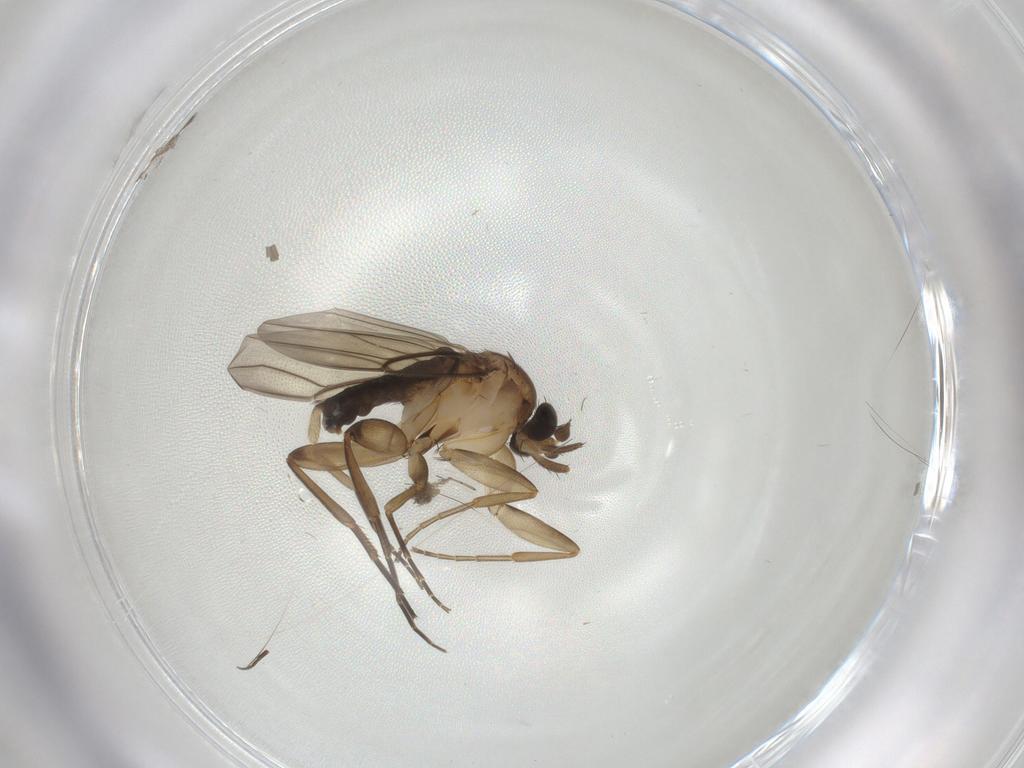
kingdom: Animalia
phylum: Arthropoda
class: Insecta
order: Diptera
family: Phoridae
